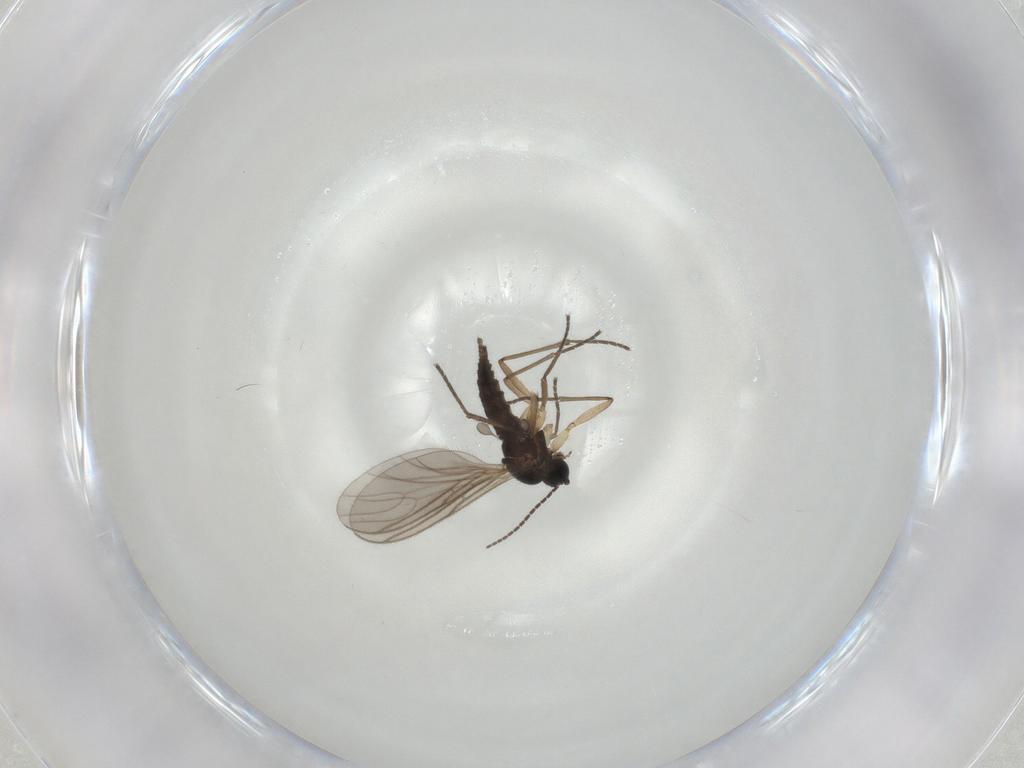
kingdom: Animalia
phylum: Arthropoda
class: Insecta
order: Diptera
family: Sciaridae
